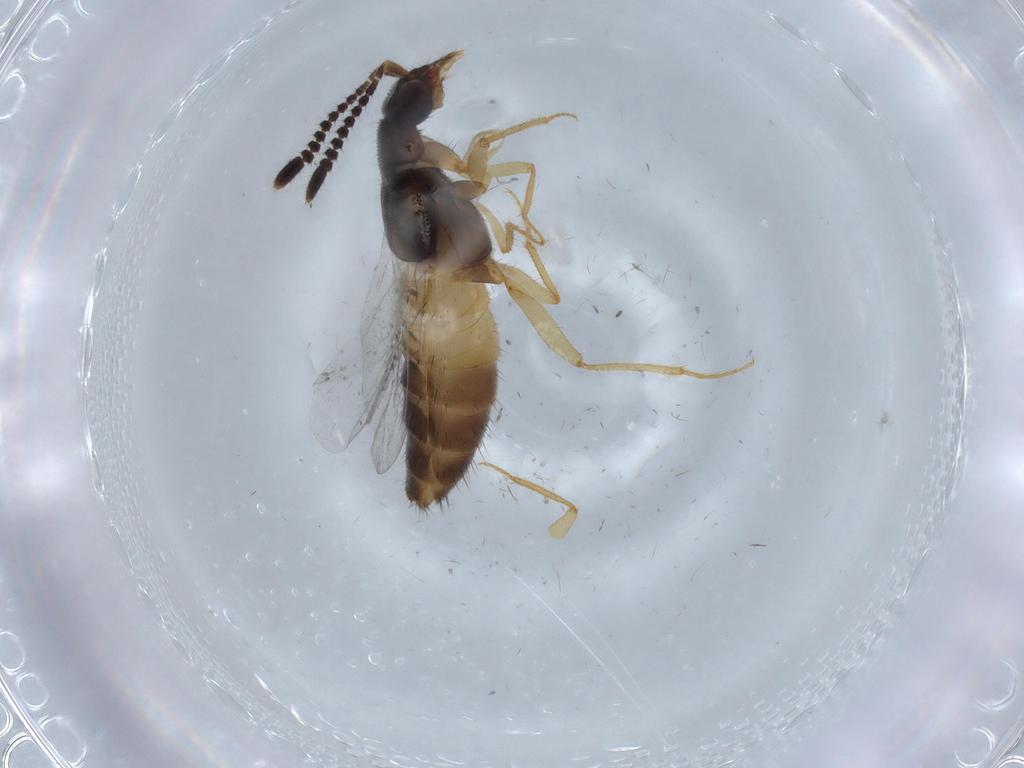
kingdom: Animalia
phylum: Arthropoda
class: Insecta
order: Coleoptera
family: Staphylinidae
